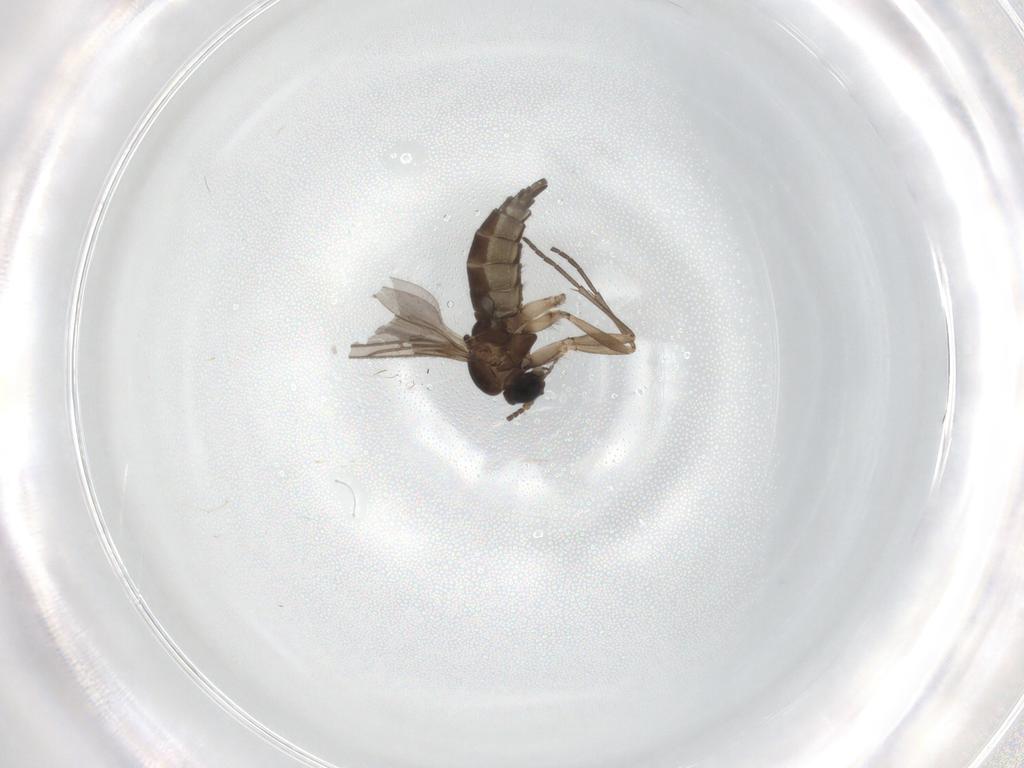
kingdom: Animalia
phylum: Arthropoda
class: Insecta
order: Diptera
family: Sciaridae
